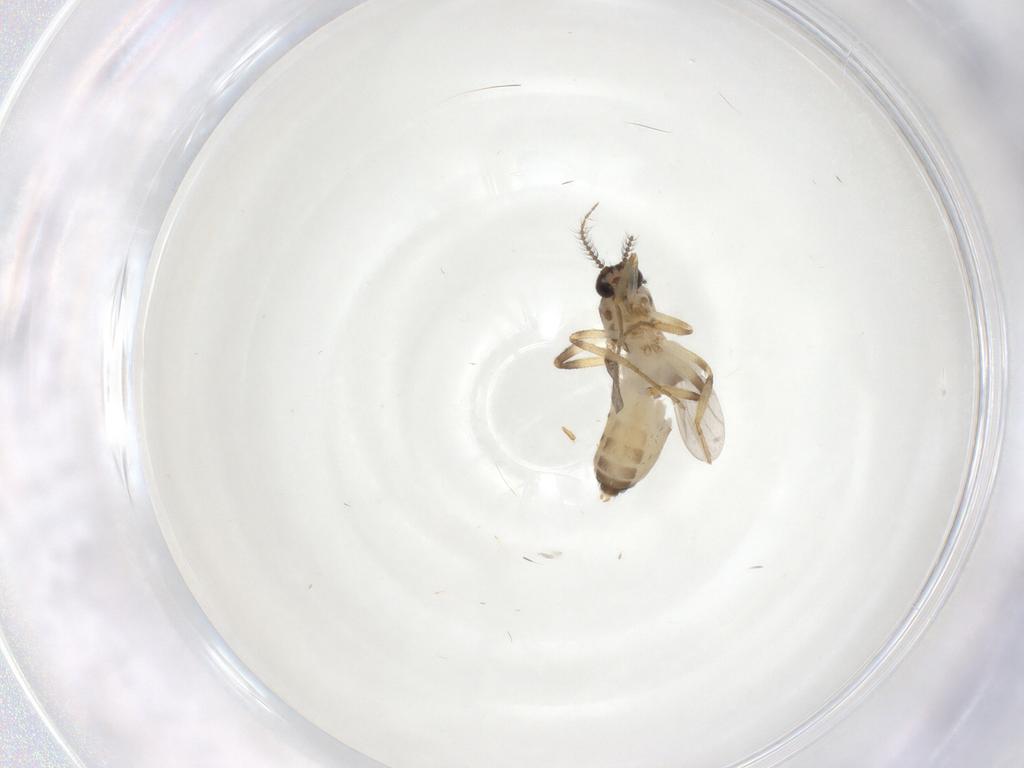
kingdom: Animalia
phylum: Arthropoda
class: Insecta
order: Diptera
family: Ceratopogonidae
